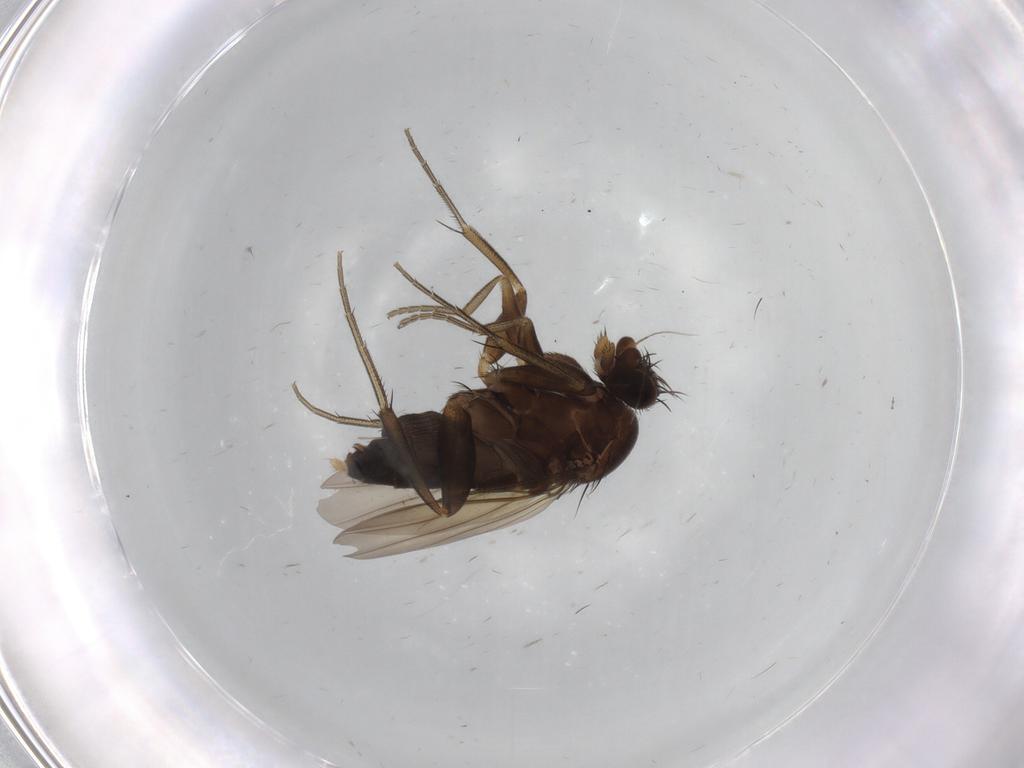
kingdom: Animalia
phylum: Arthropoda
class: Insecta
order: Diptera
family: Phoridae
